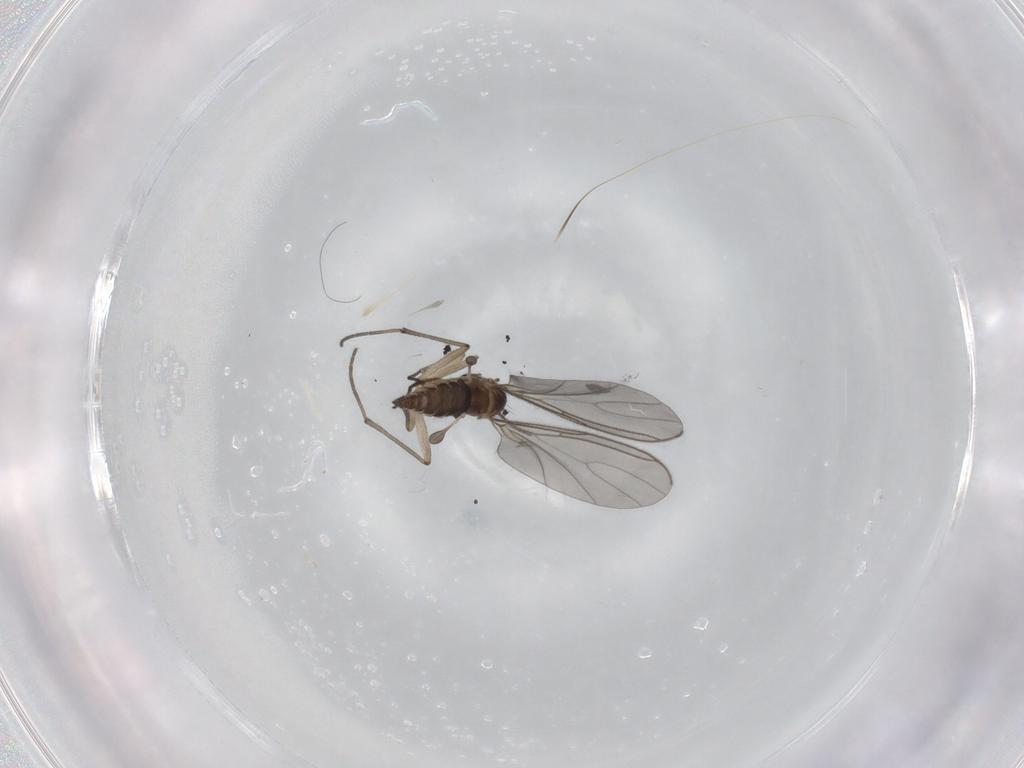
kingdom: Animalia
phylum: Arthropoda
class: Insecta
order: Diptera
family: Sciaridae
